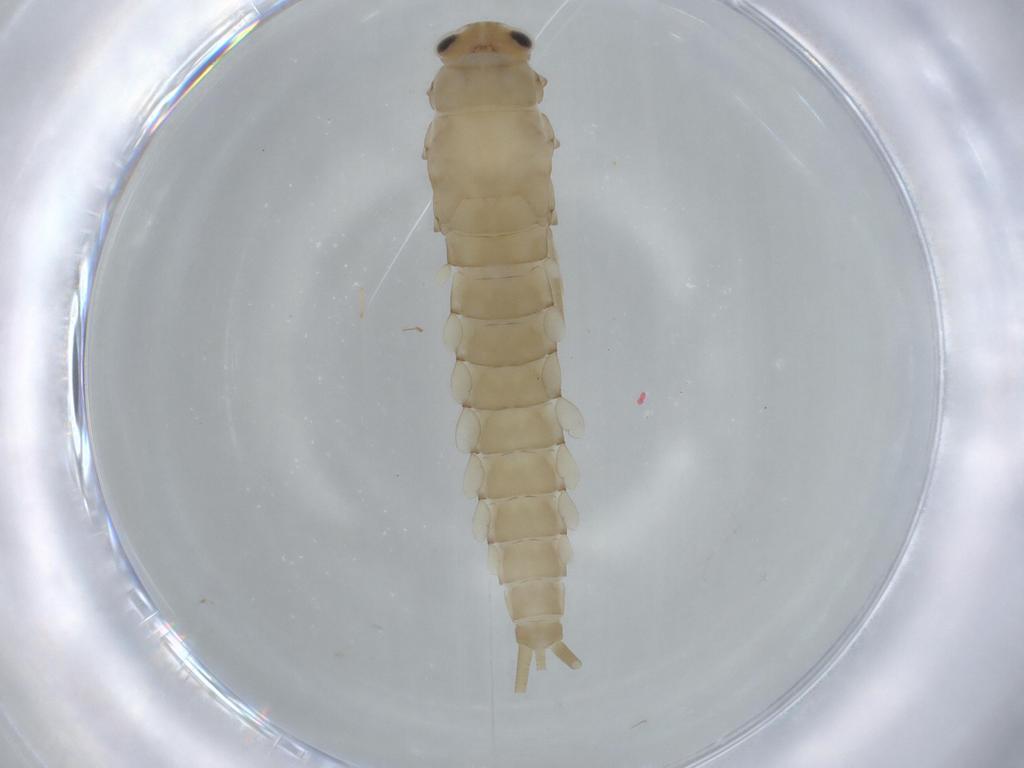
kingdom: Animalia
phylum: Arthropoda
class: Insecta
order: Ephemeroptera
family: Baetidae
